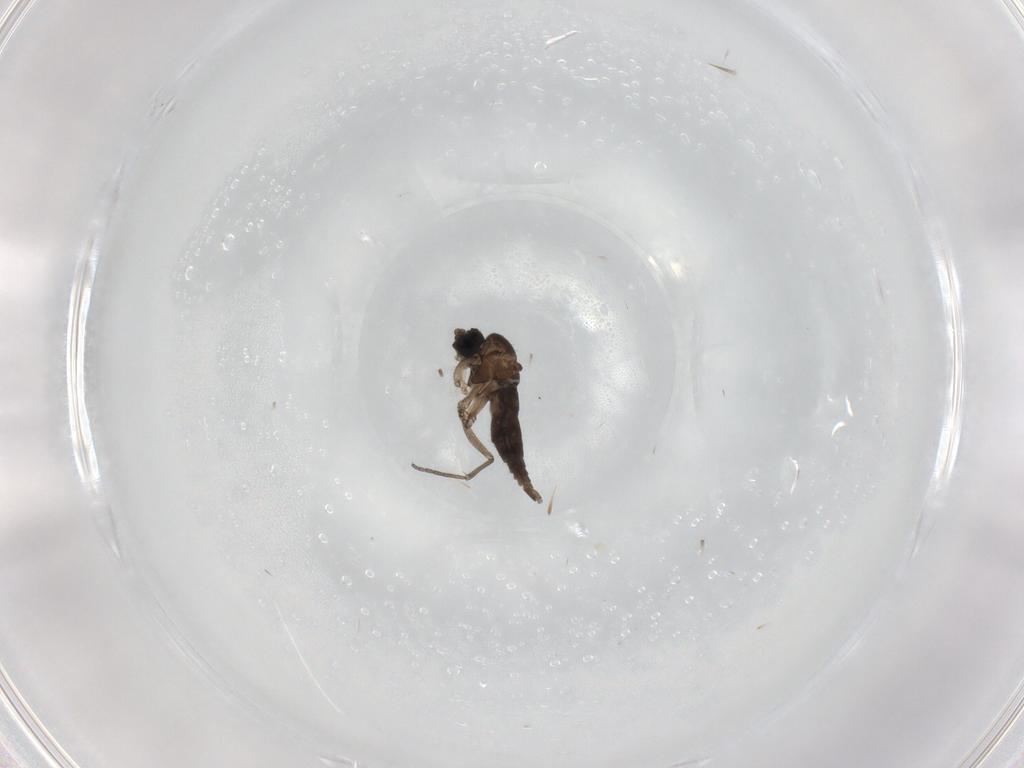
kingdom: Animalia
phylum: Arthropoda
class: Insecta
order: Diptera
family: Sciaridae
